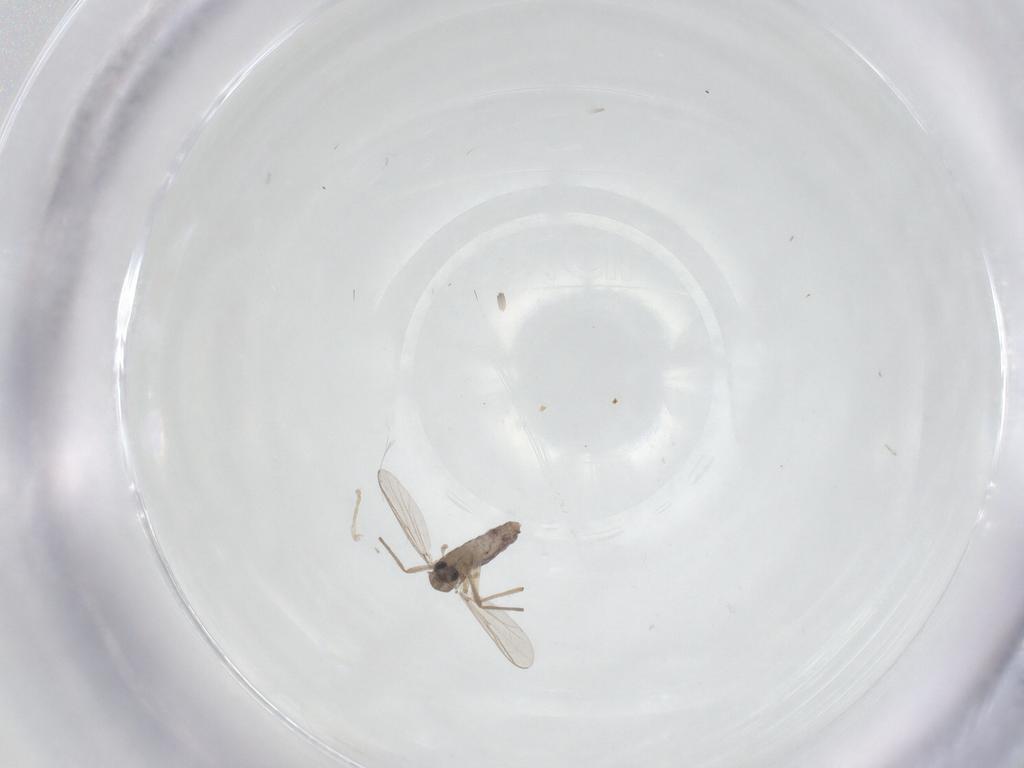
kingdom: Animalia
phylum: Arthropoda
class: Insecta
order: Diptera
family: Chironomidae
